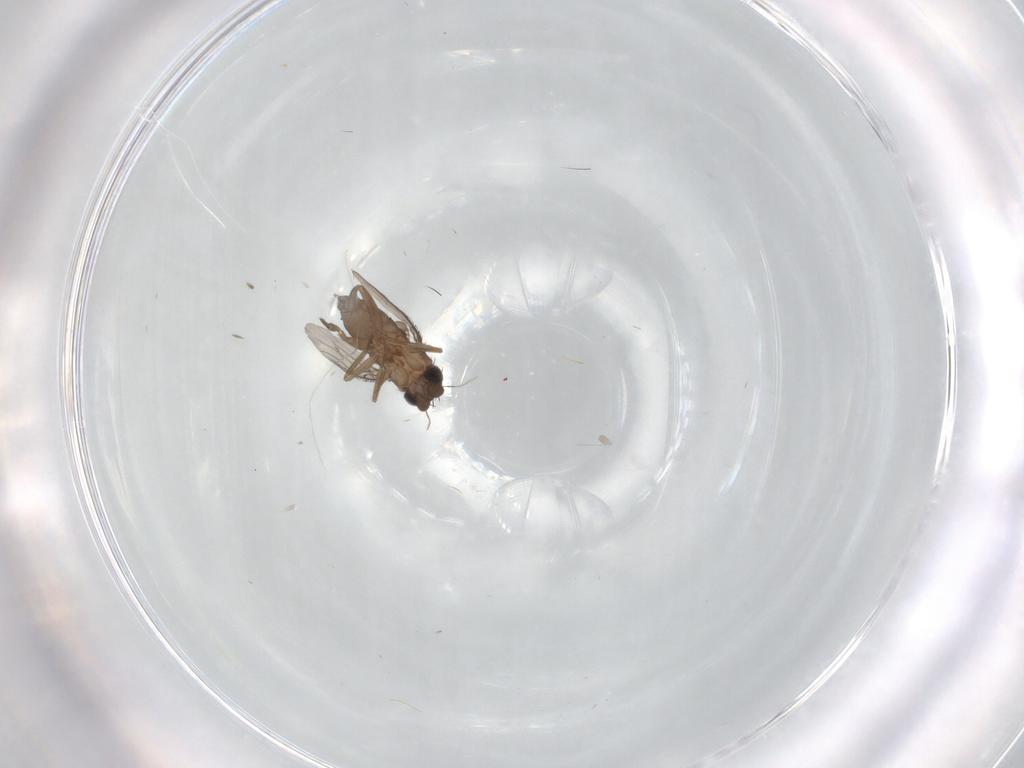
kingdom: Animalia
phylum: Arthropoda
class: Insecta
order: Diptera
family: Phoridae
